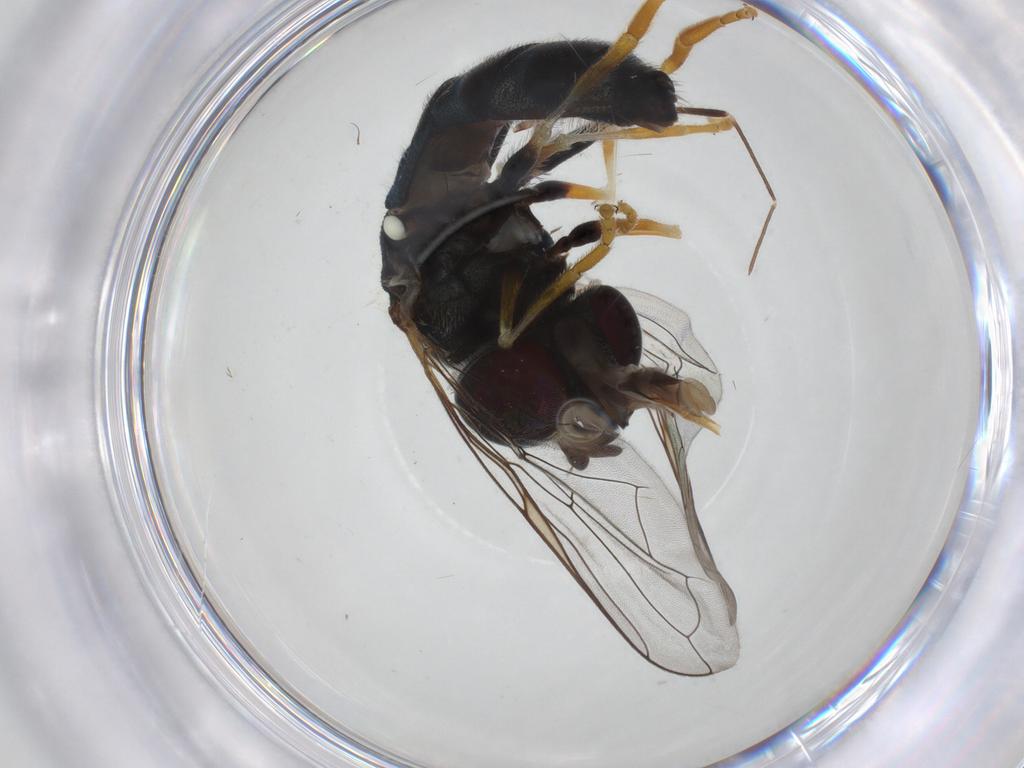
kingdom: Animalia
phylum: Arthropoda
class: Insecta
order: Diptera
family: Syrphidae
